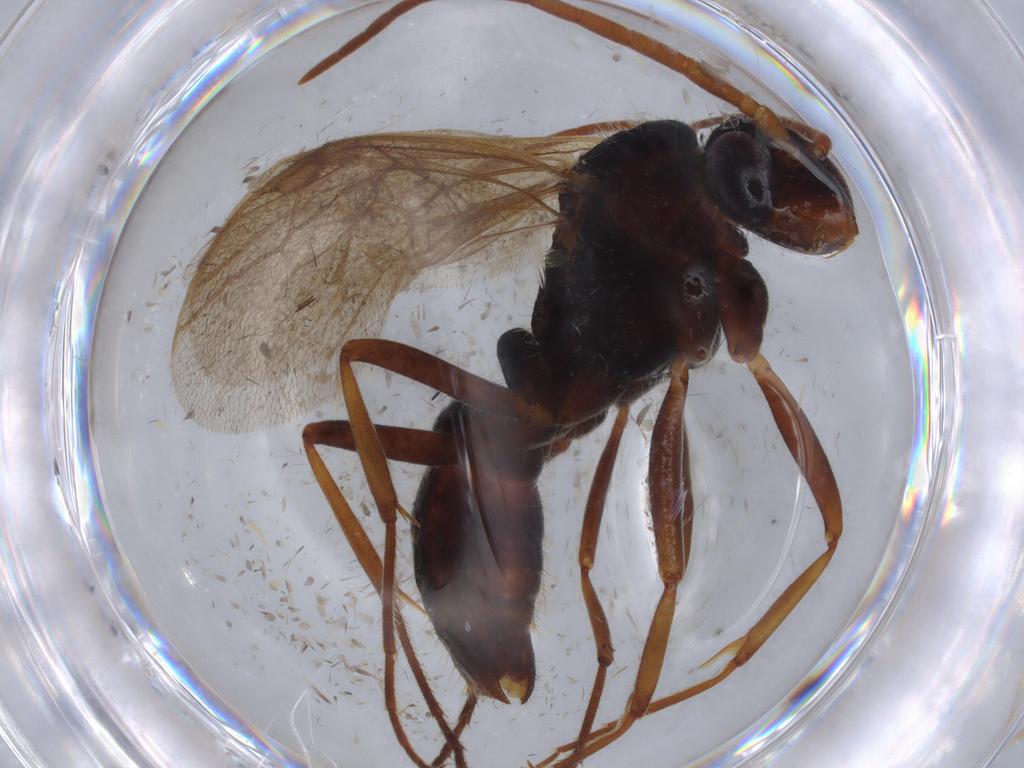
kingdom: Animalia
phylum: Arthropoda
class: Insecta
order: Hymenoptera
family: Formicidae
